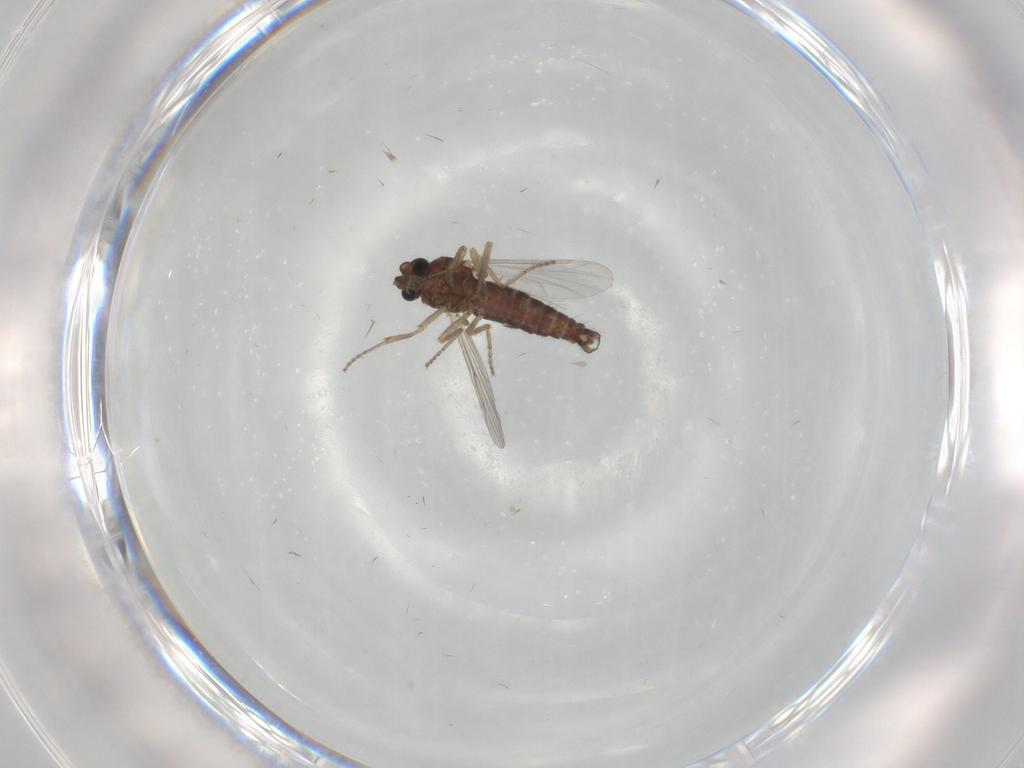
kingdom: Animalia
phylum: Arthropoda
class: Insecta
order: Diptera
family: Ceratopogonidae
